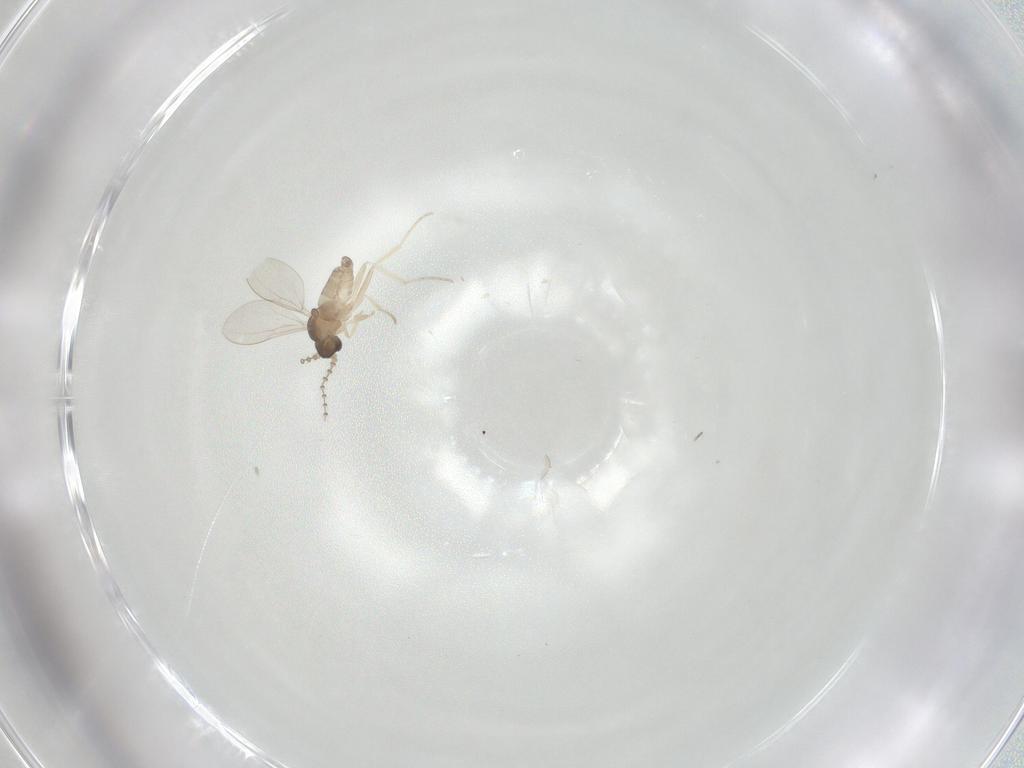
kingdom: Animalia
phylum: Arthropoda
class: Insecta
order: Diptera
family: Cecidomyiidae
